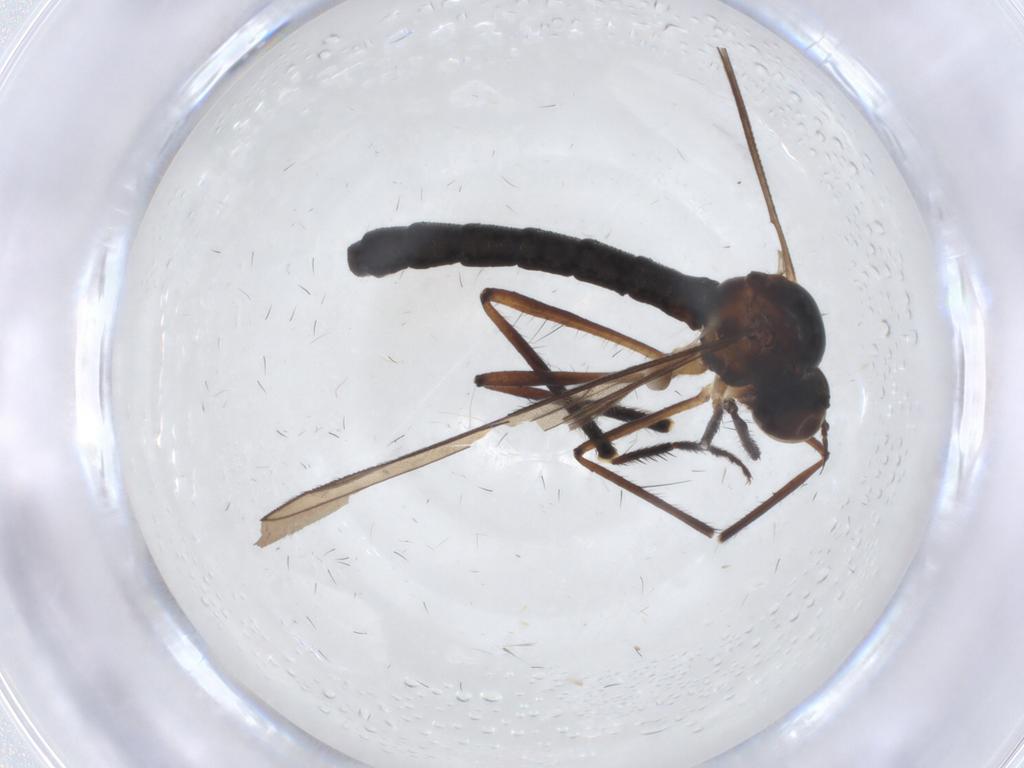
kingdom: Animalia
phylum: Arthropoda
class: Insecta
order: Diptera
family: Hybotidae
